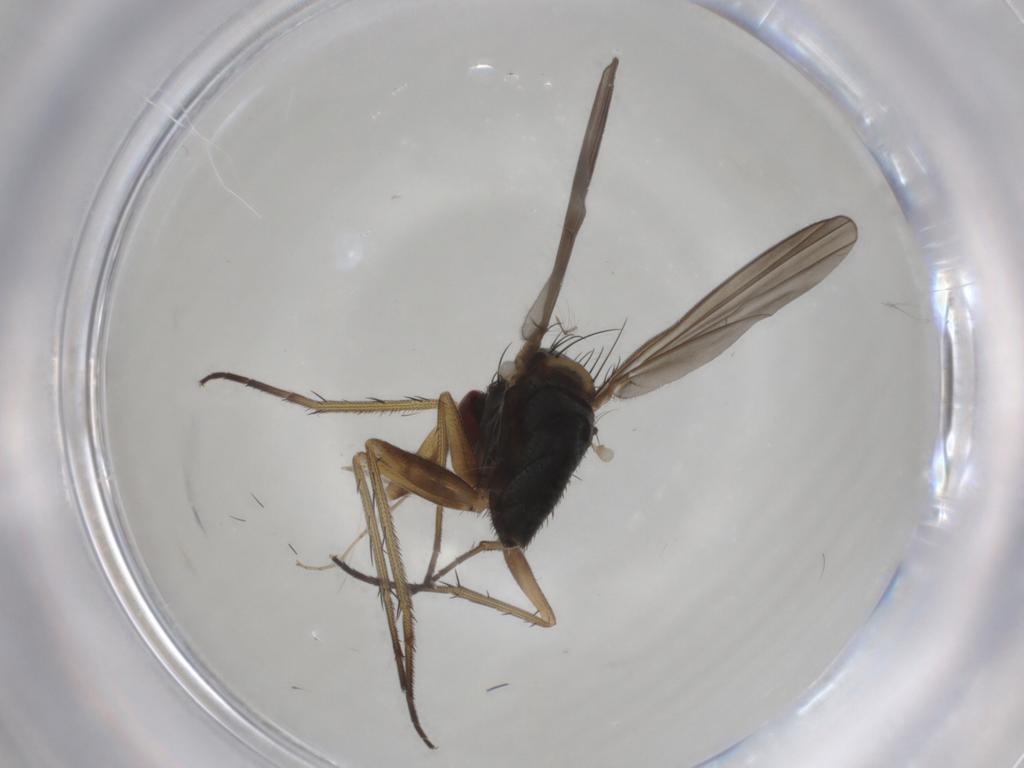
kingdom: Animalia
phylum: Arthropoda
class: Insecta
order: Diptera
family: Dolichopodidae
